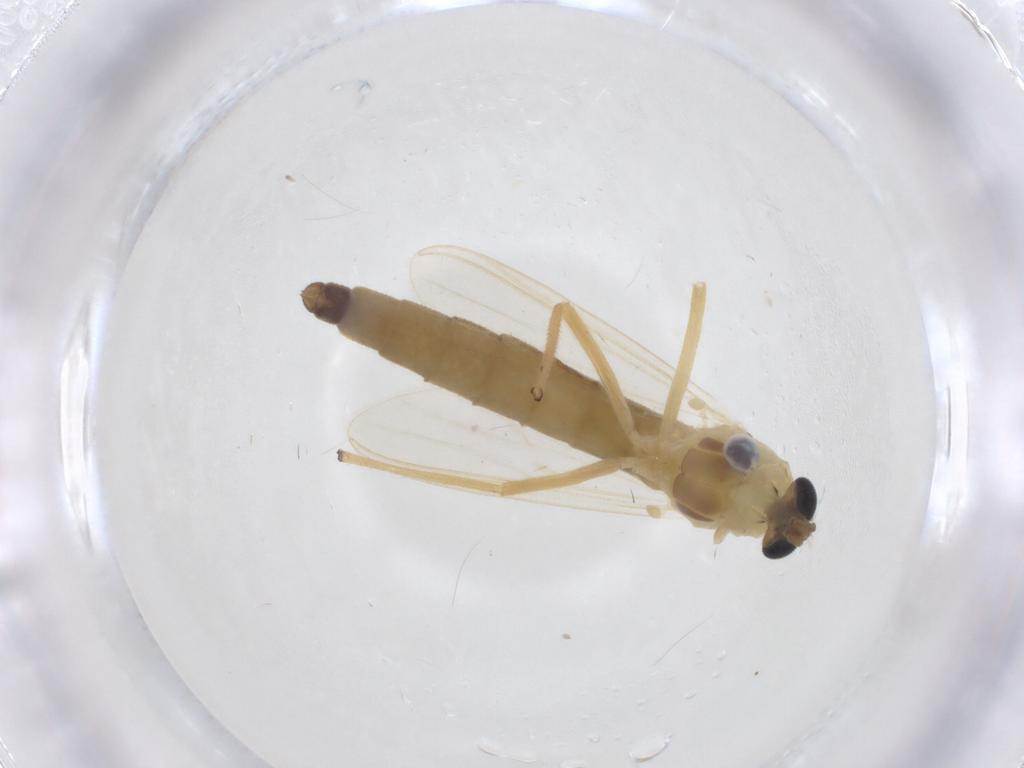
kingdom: Animalia
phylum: Arthropoda
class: Insecta
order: Diptera
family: Chironomidae
